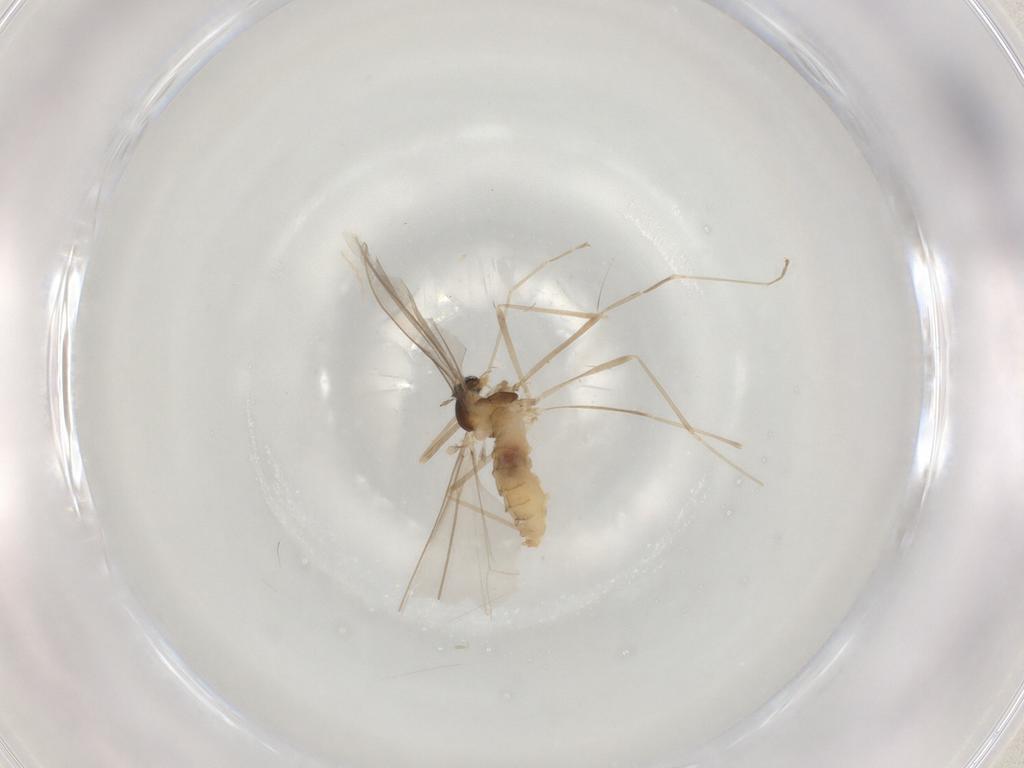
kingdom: Animalia
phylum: Arthropoda
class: Insecta
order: Diptera
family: Cecidomyiidae
